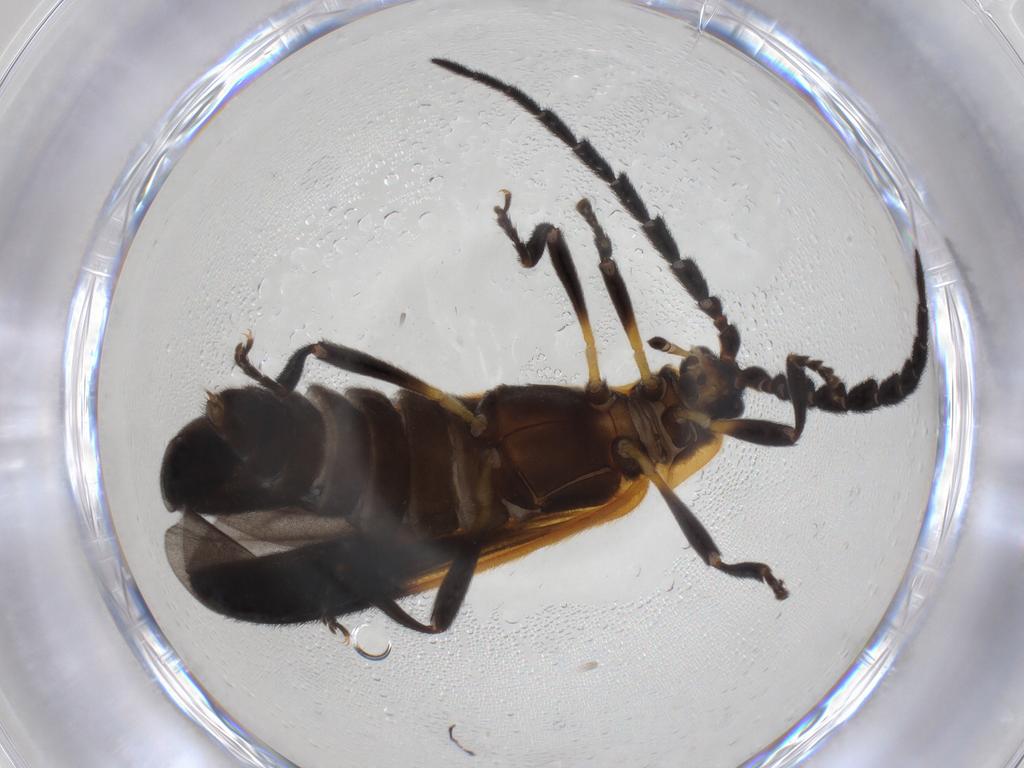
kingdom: Animalia
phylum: Arthropoda
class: Insecta
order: Coleoptera
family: Lycidae
